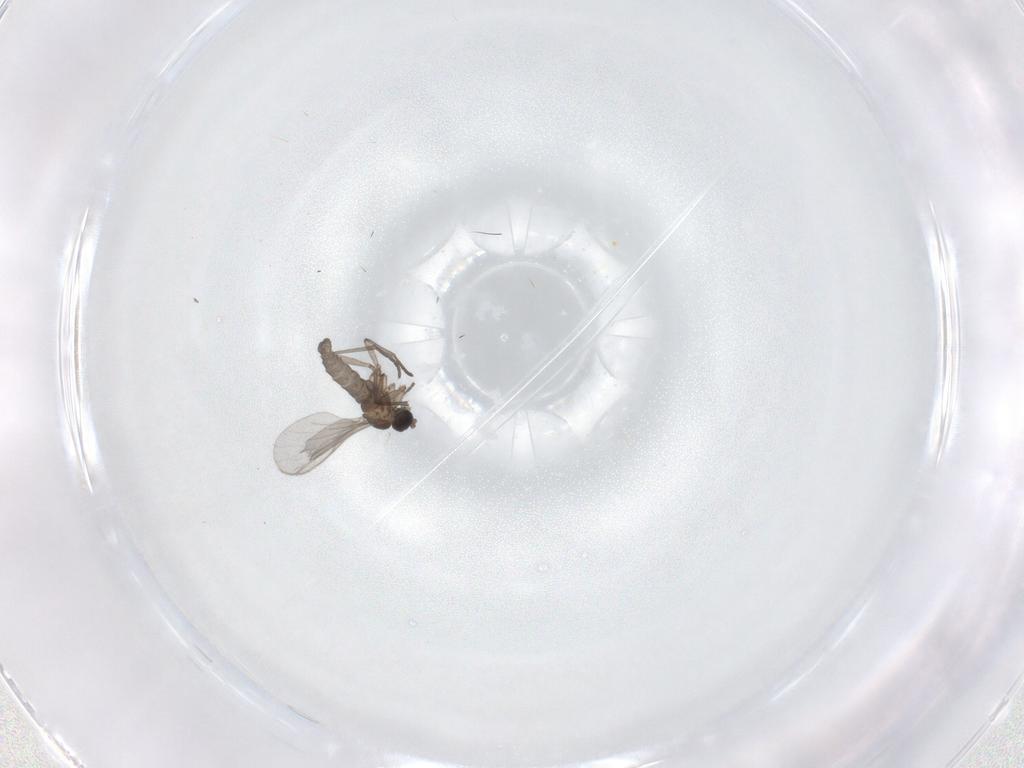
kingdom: Animalia
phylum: Arthropoda
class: Insecta
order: Diptera
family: Sciaridae
